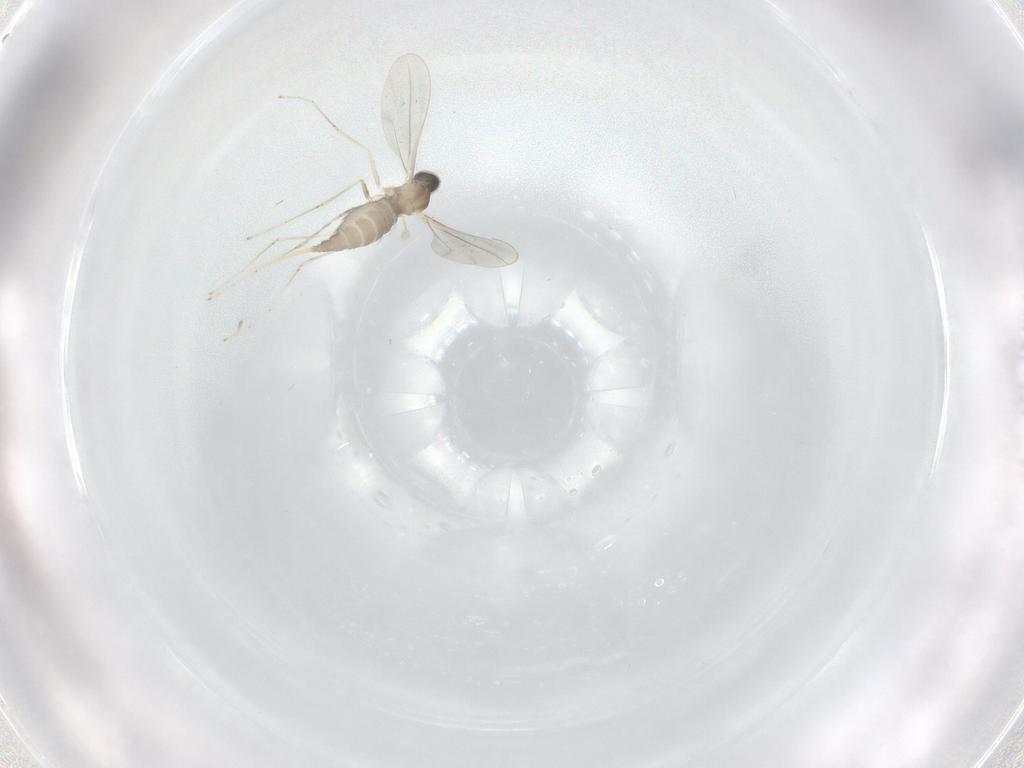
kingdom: Animalia
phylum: Arthropoda
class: Insecta
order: Diptera
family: Cecidomyiidae
